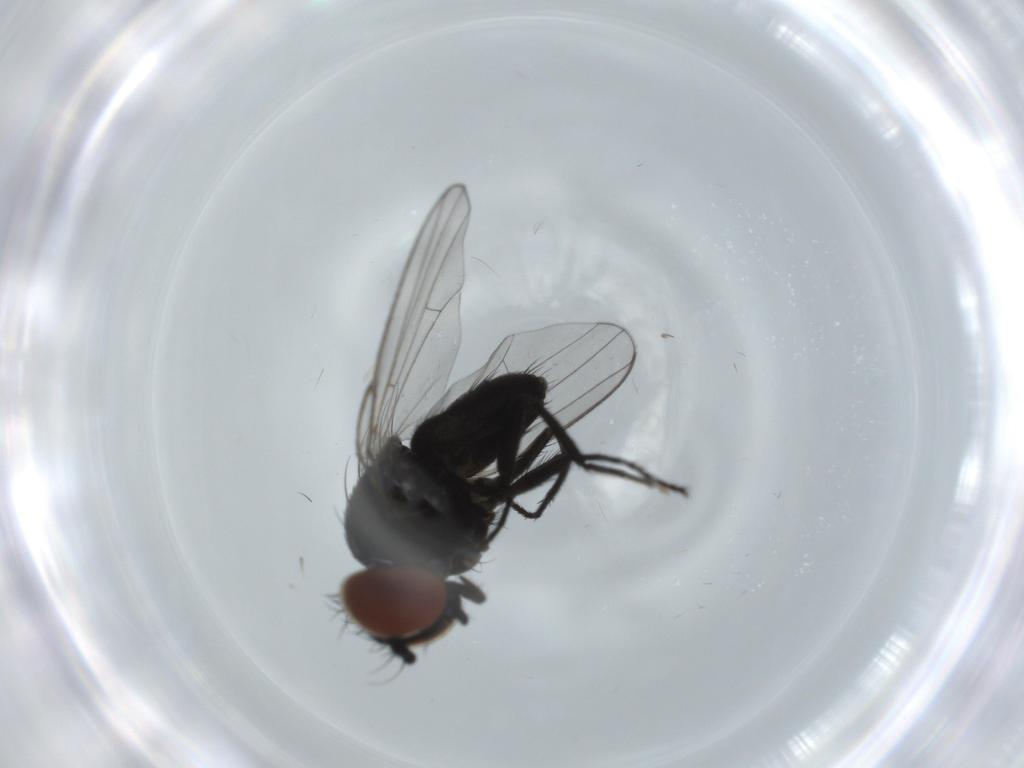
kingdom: Animalia
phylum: Arthropoda
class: Insecta
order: Diptera
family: Milichiidae
